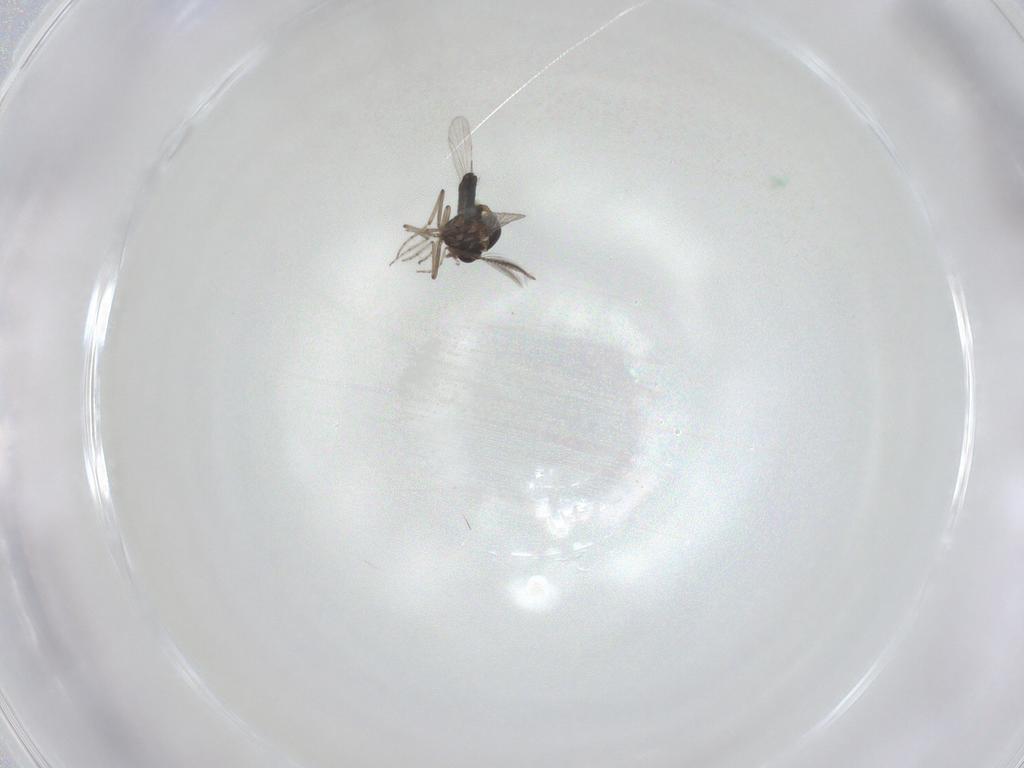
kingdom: Animalia
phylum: Arthropoda
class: Insecta
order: Diptera
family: Ceratopogonidae
